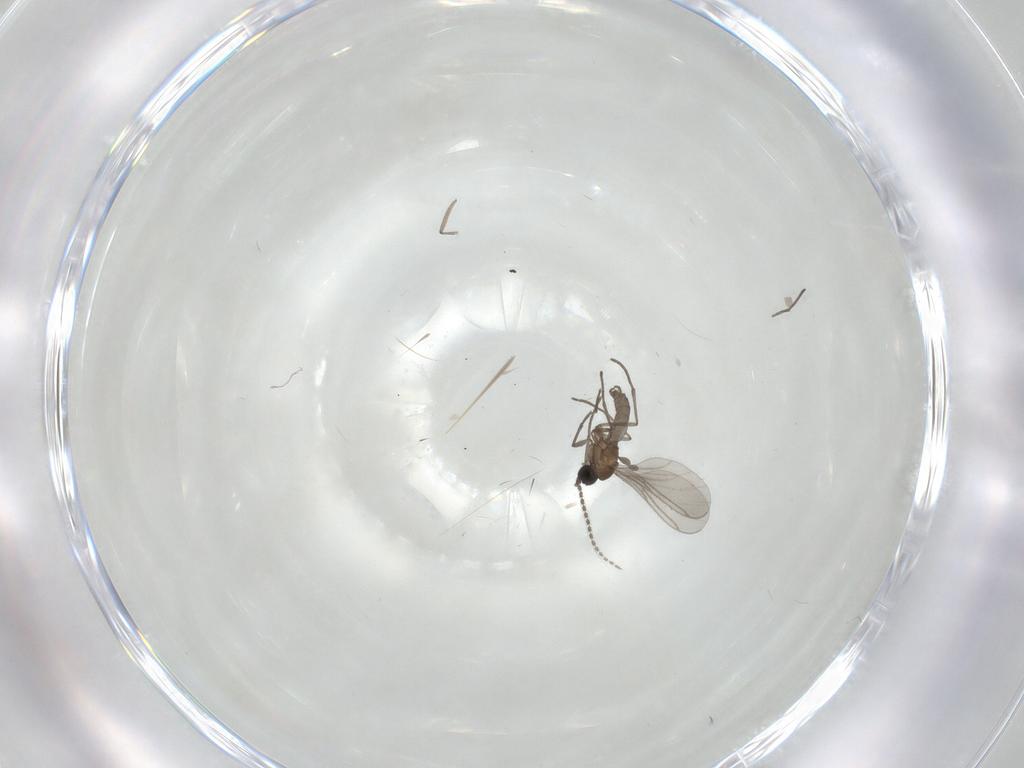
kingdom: Animalia
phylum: Arthropoda
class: Insecta
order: Diptera
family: Cecidomyiidae
